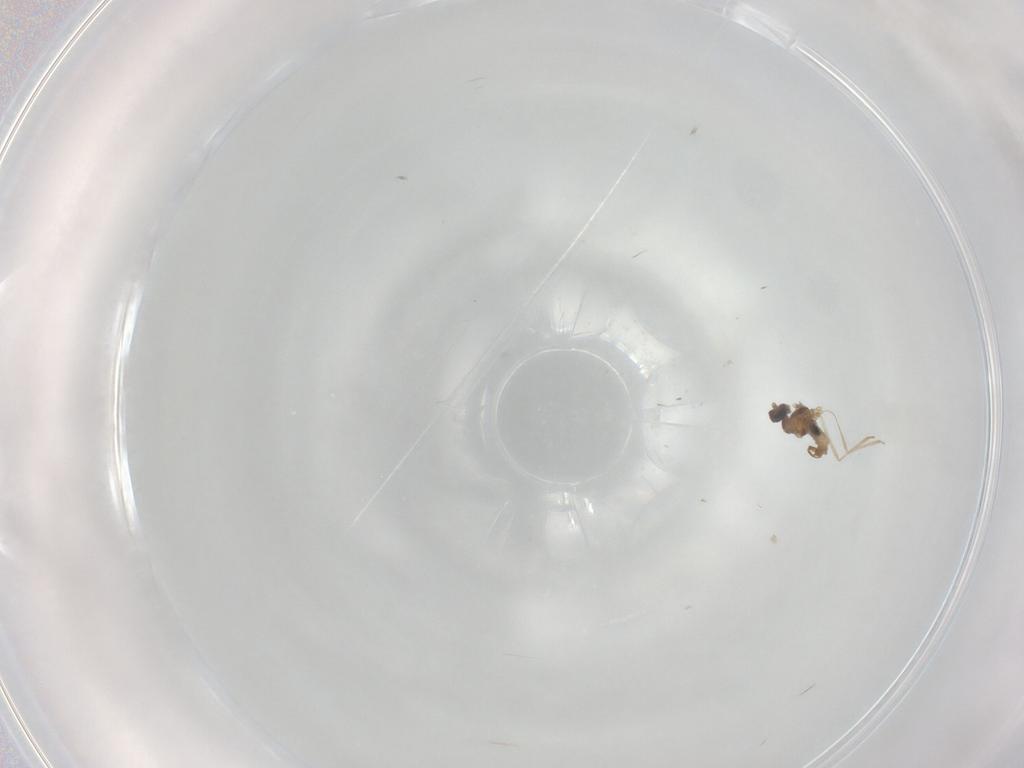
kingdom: Animalia
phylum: Arthropoda
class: Insecta
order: Diptera
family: Cecidomyiidae
